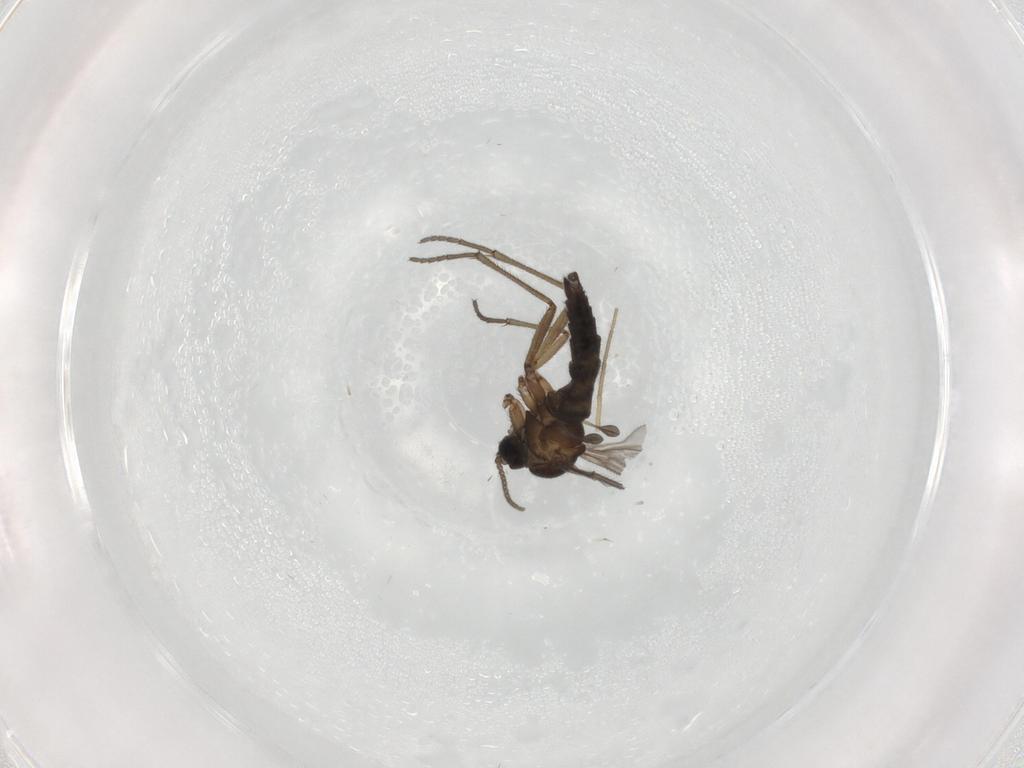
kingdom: Animalia
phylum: Arthropoda
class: Insecta
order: Diptera
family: Sciaridae
